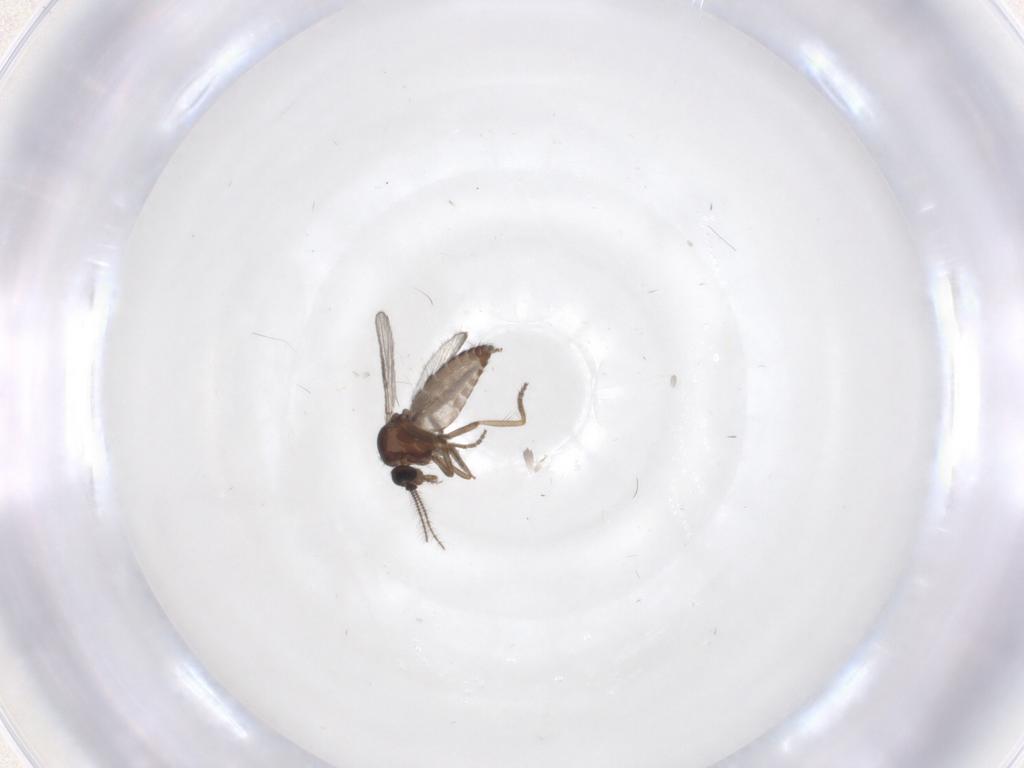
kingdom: Animalia
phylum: Arthropoda
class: Insecta
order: Diptera
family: Ceratopogonidae
